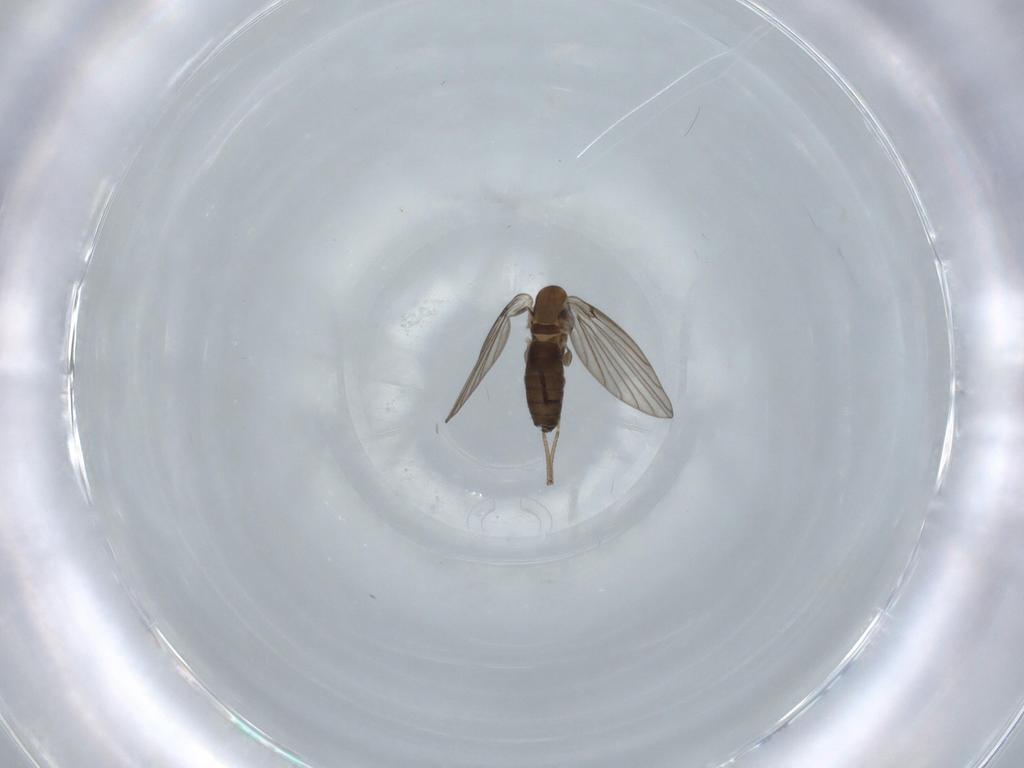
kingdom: Animalia
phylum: Arthropoda
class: Insecta
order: Diptera
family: Psychodidae
